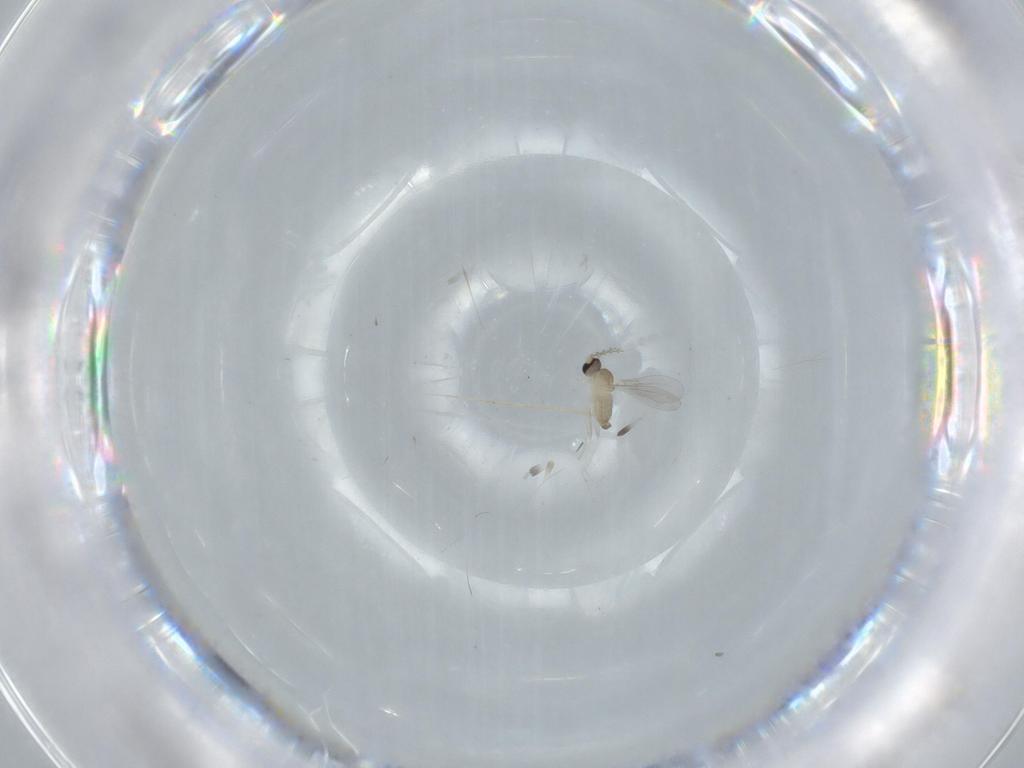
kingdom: Animalia
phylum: Arthropoda
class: Insecta
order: Diptera
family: Cecidomyiidae
